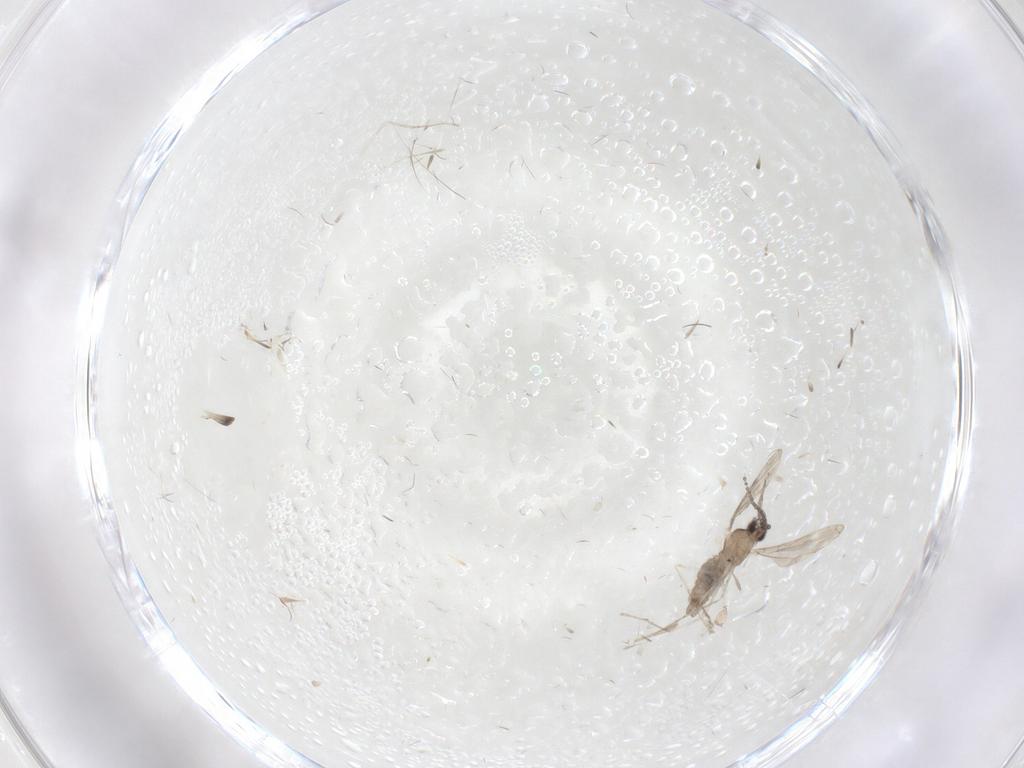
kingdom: Animalia
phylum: Arthropoda
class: Insecta
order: Diptera
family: Cecidomyiidae
